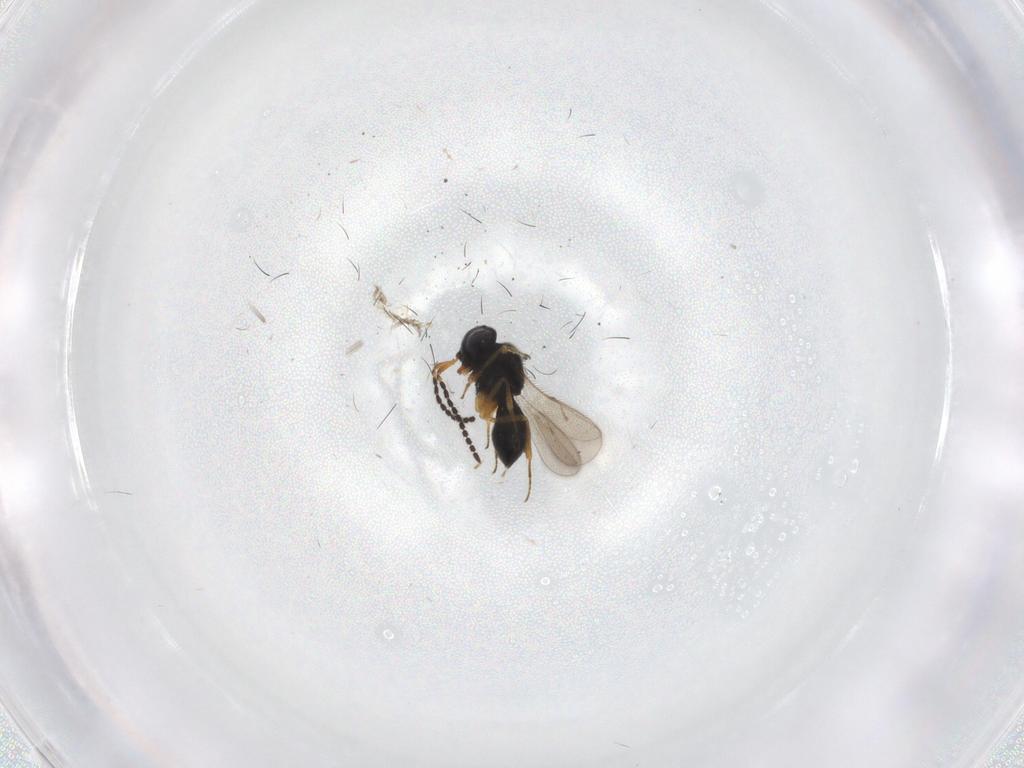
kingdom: Animalia
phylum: Arthropoda
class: Insecta
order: Hymenoptera
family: Scelionidae
